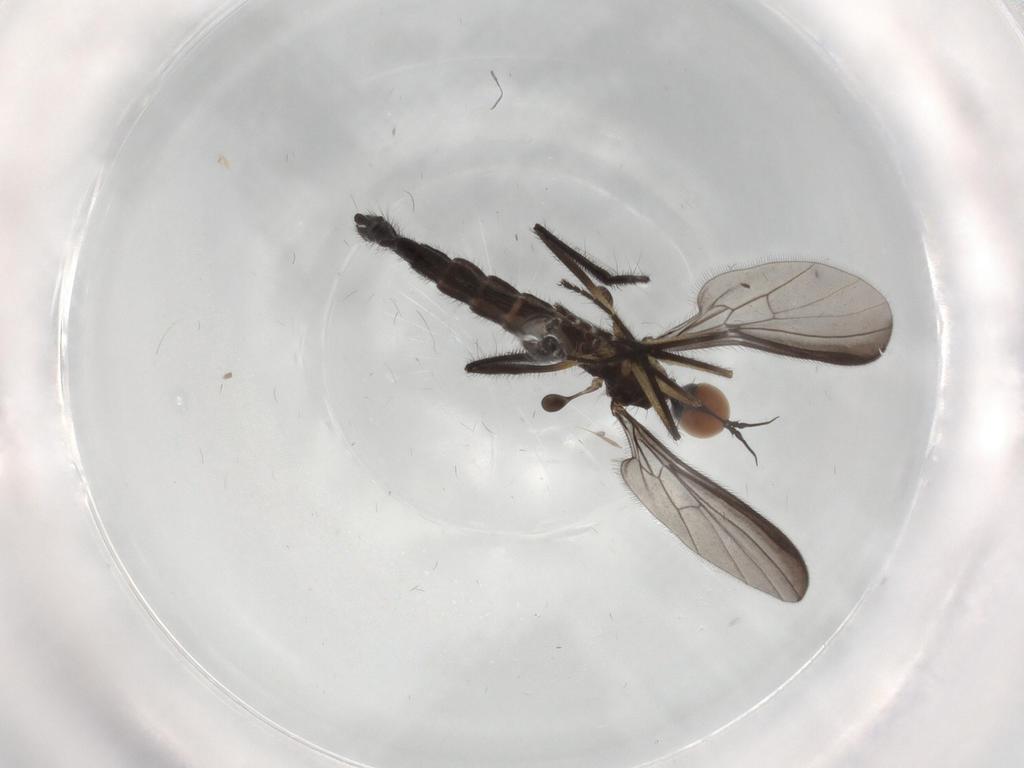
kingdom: Animalia
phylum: Arthropoda
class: Insecta
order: Diptera
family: Empididae
